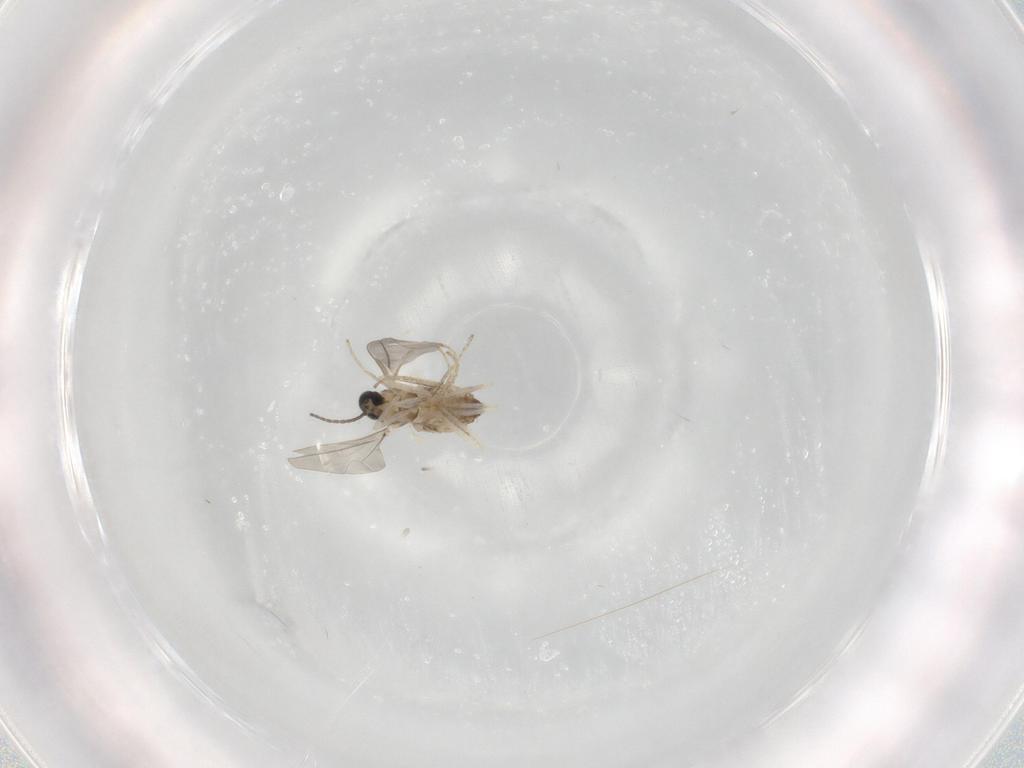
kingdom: Animalia
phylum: Arthropoda
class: Insecta
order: Diptera
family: Cecidomyiidae
